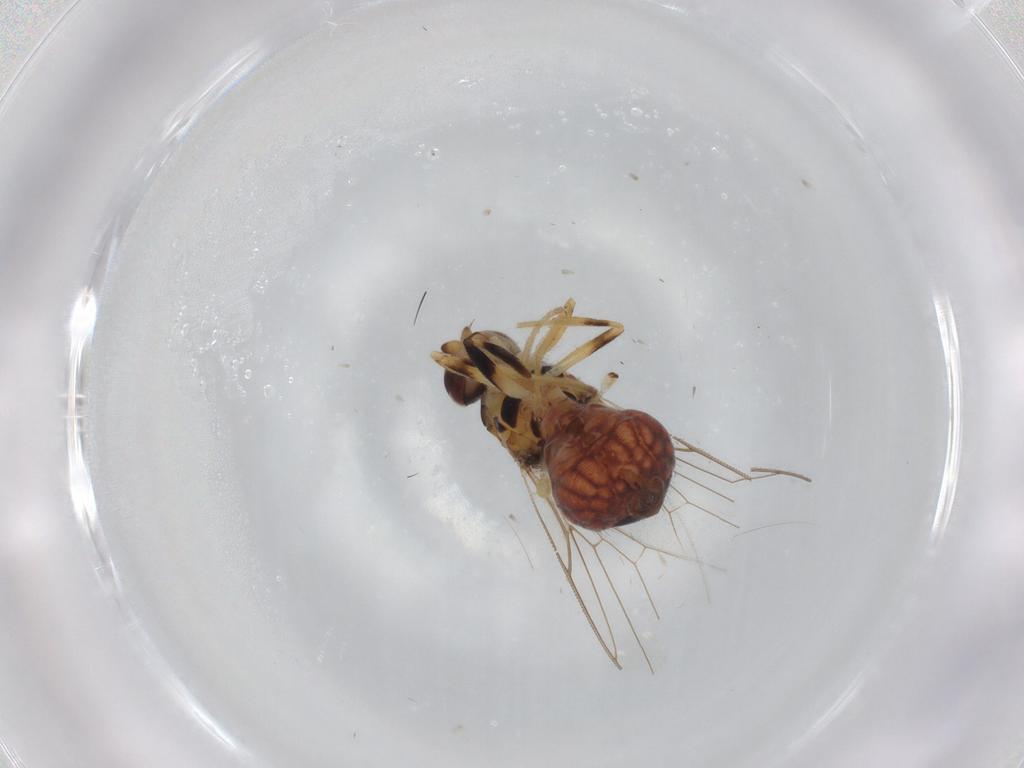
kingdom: Animalia
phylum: Arthropoda
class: Insecta
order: Diptera
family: Chloropidae
